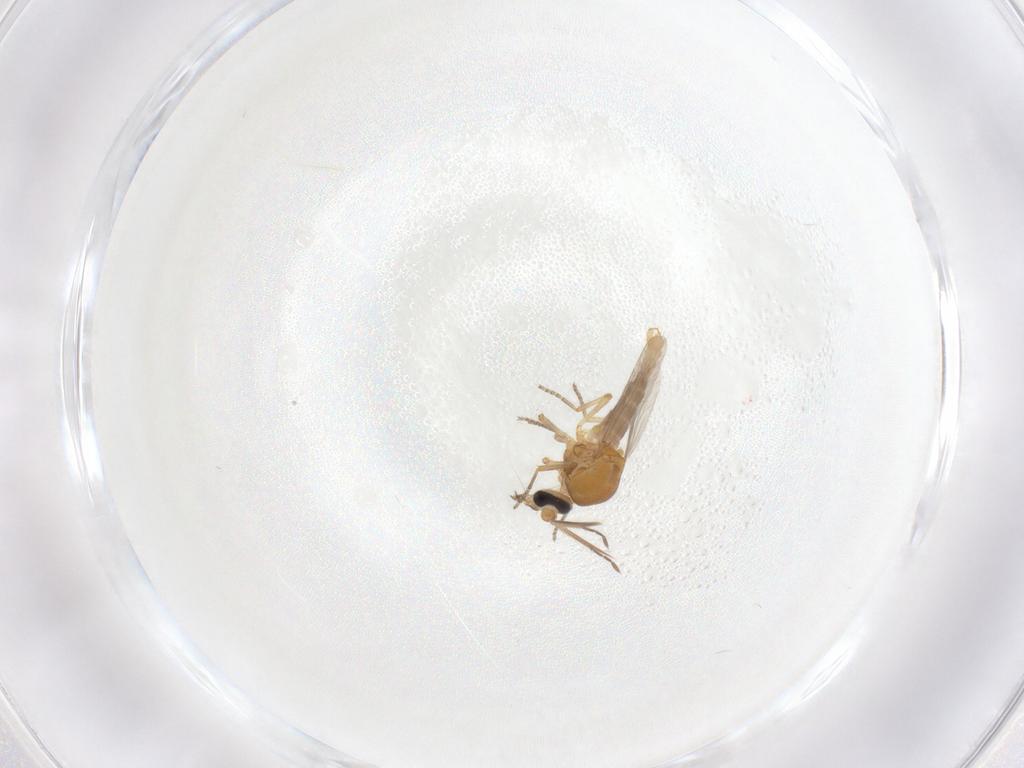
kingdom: Animalia
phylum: Arthropoda
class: Insecta
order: Diptera
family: Ceratopogonidae
